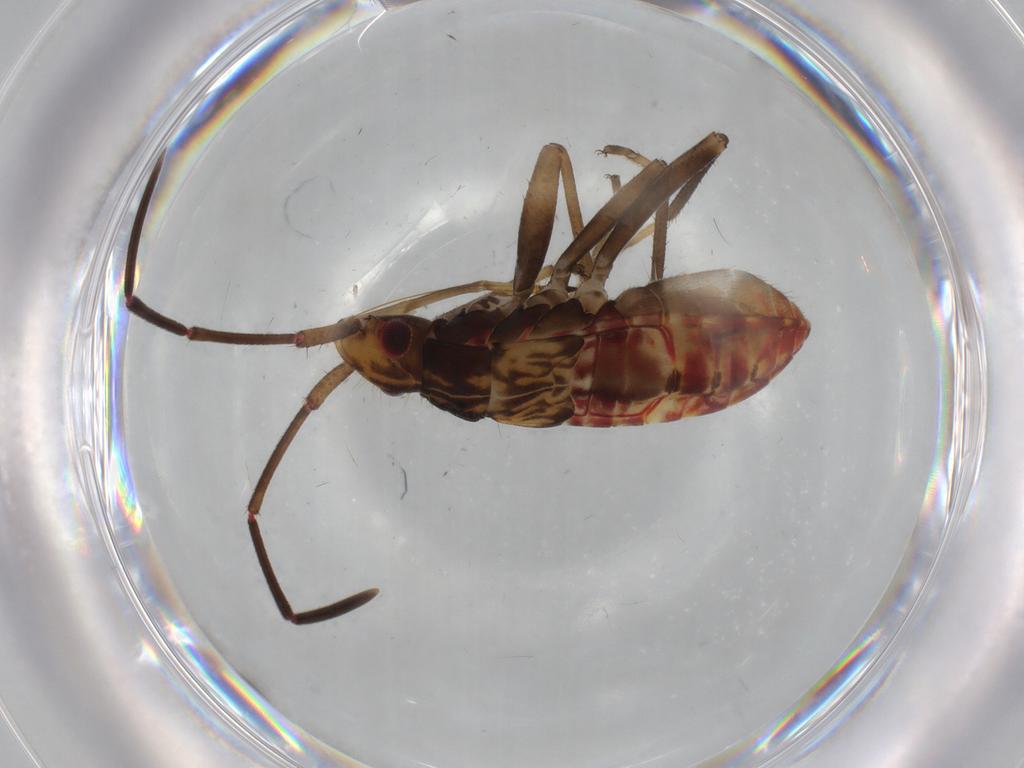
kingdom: Animalia
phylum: Arthropoda
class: Insecta
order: Hemiptera
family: Rhyparochromidae
